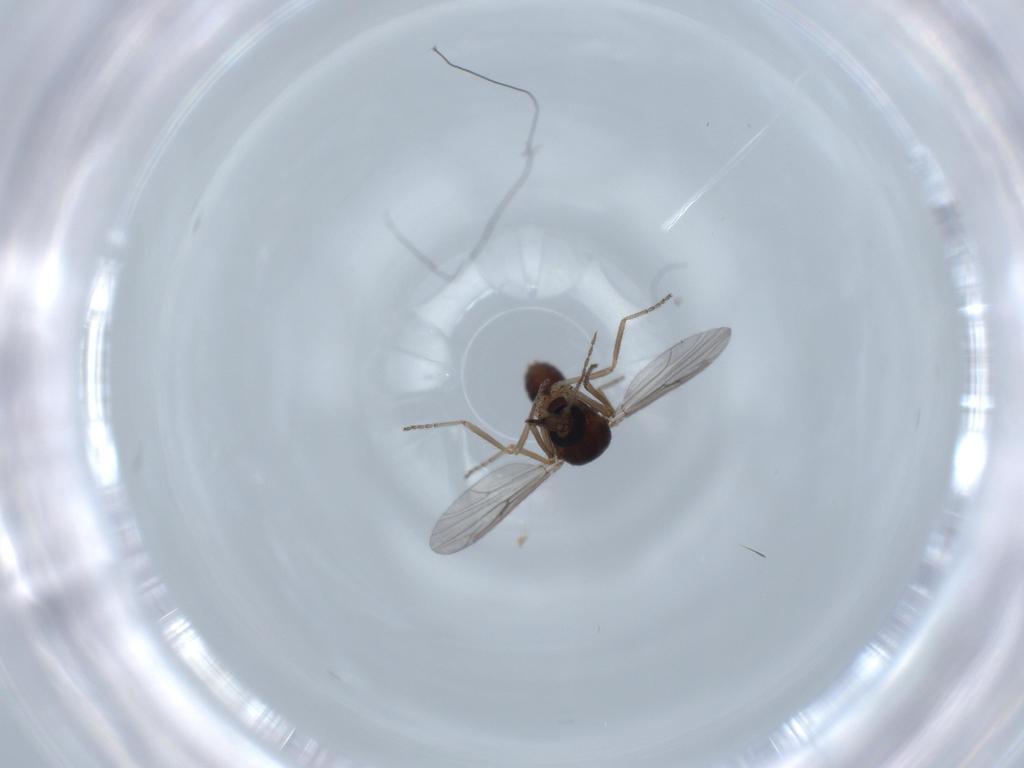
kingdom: Animalia
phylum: Arthropoda
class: Insecta
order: Diptera
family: Ceratopogonidae
